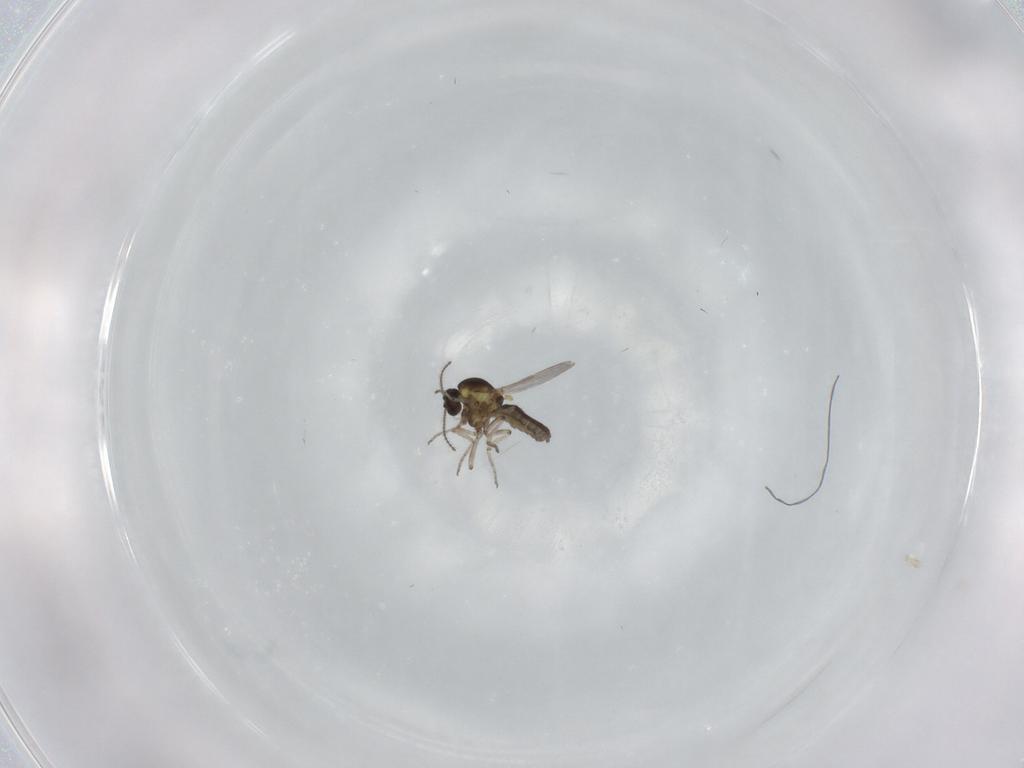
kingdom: Animalia
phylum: Arthropoda
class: Insecta
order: Diptera
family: Ceratopogonidae
